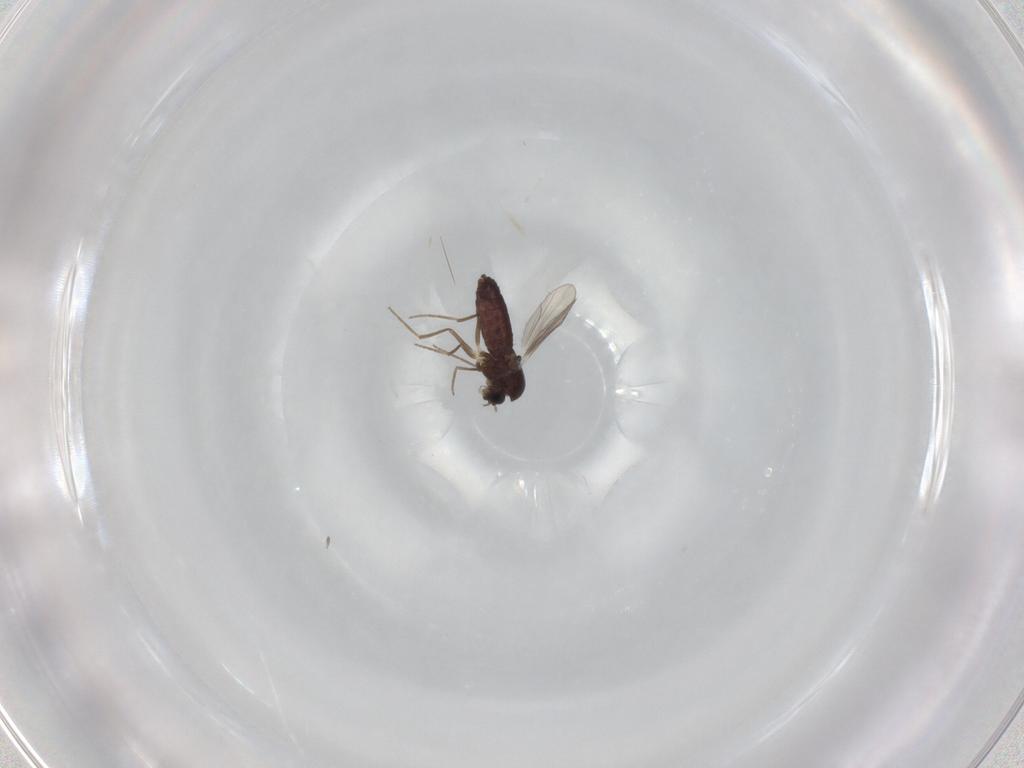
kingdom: Animalia
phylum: Arthropoda
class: Insecta
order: Diptera
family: Chironomidae
